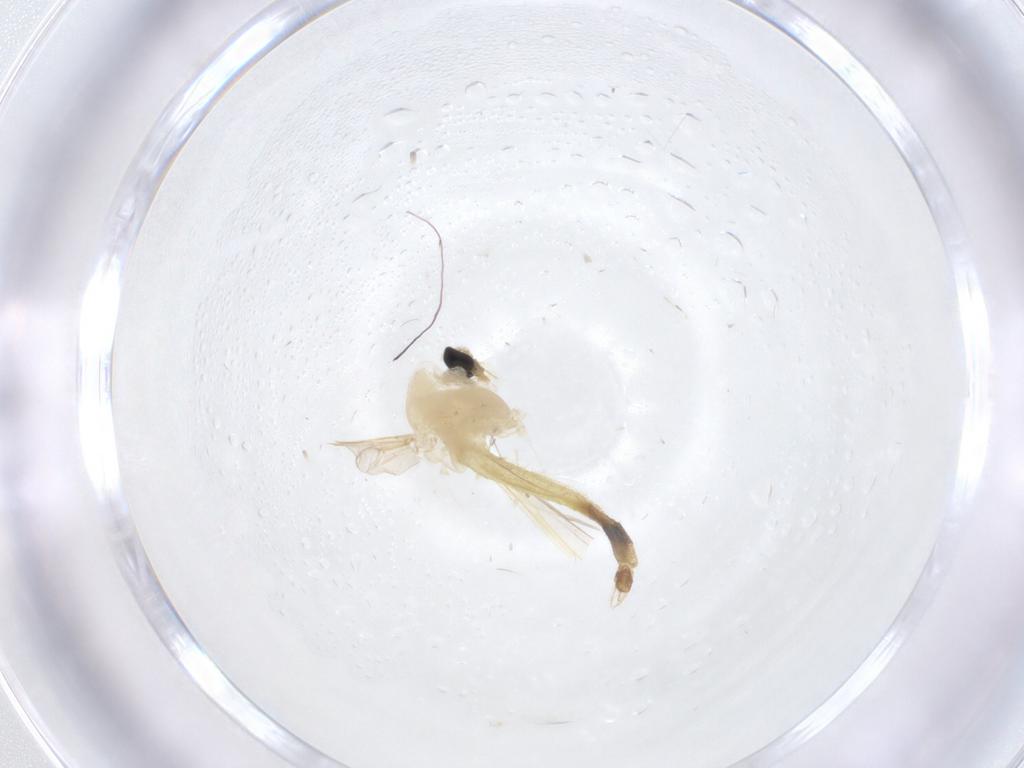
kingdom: Animalia
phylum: Arthropoda
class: Insecta
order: Diptera
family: Chironomidae
